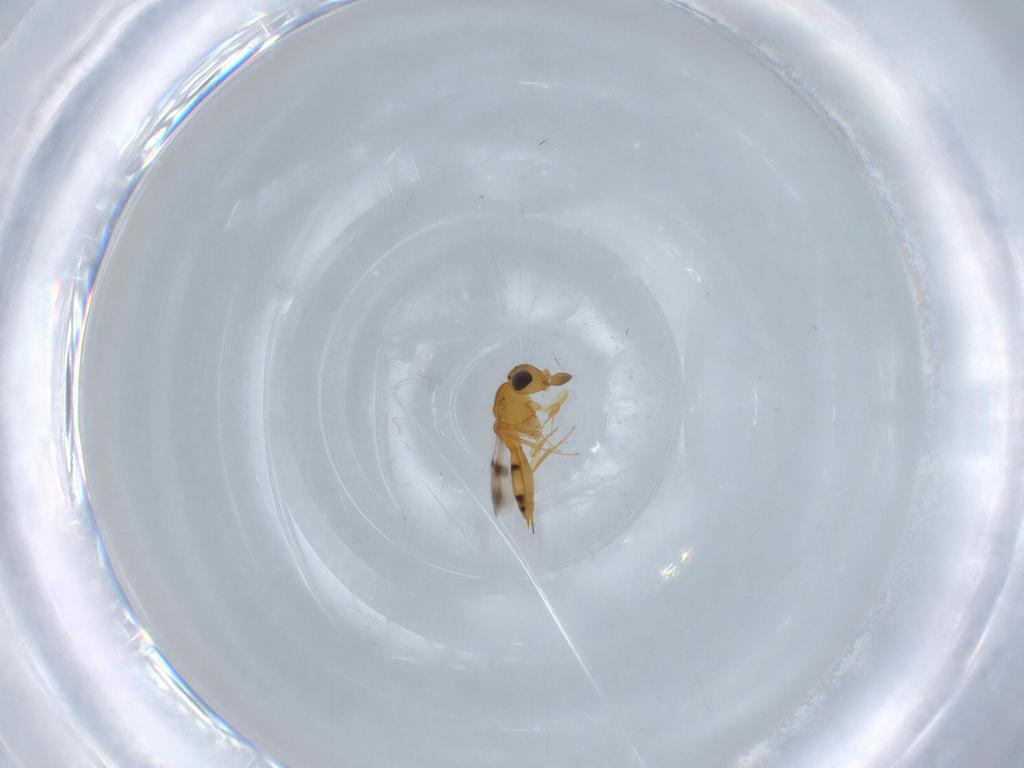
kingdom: Animalia
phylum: Arthropoda
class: Insecta
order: Hymenoptera
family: Scelionidae
